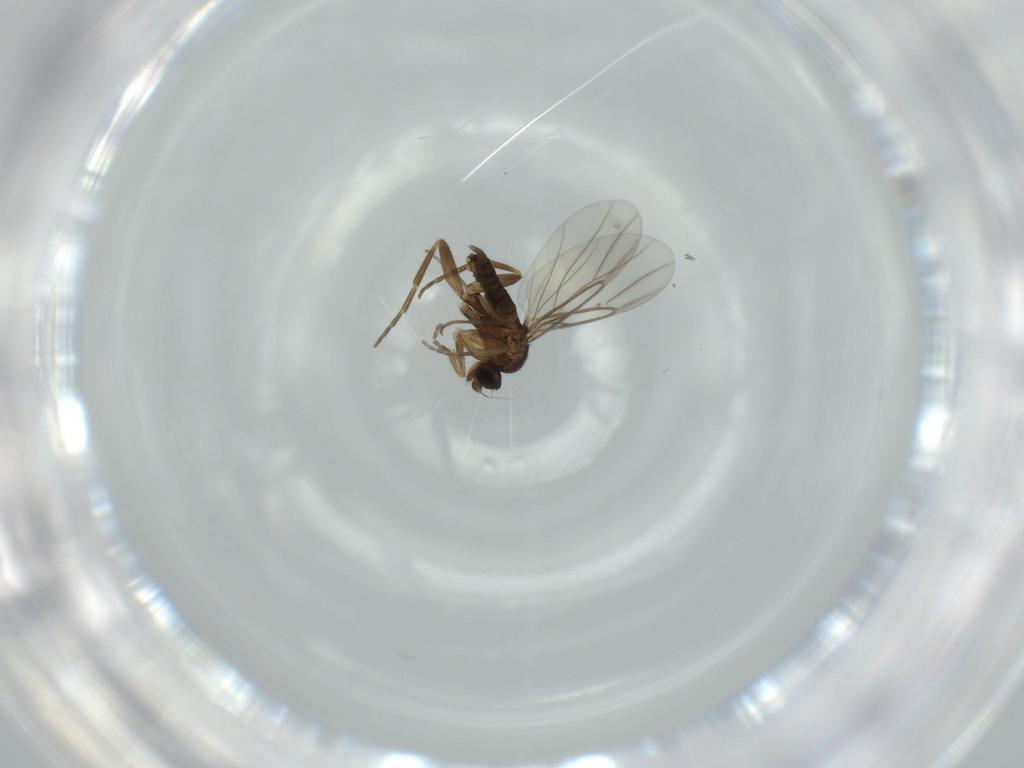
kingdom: Animalia
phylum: Arthropoda
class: Insecta
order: Diptera
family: Phoridae
